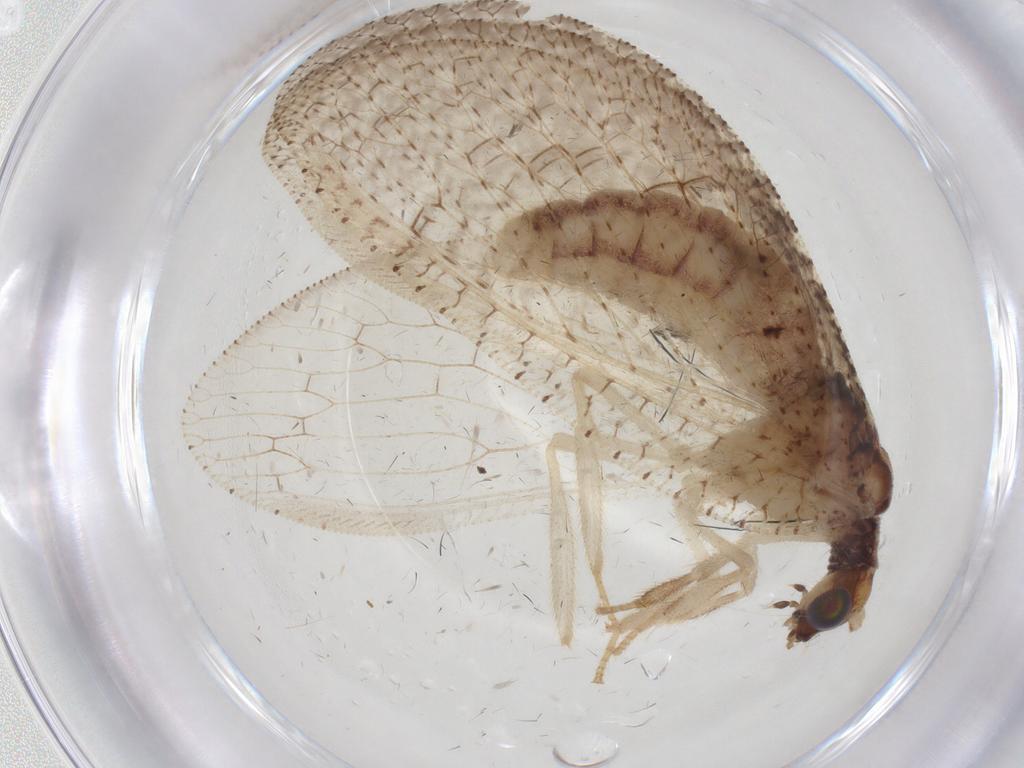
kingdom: Animalia
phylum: Arthropoda
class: Insecta
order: Neuroptera
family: Hemerobiidae
